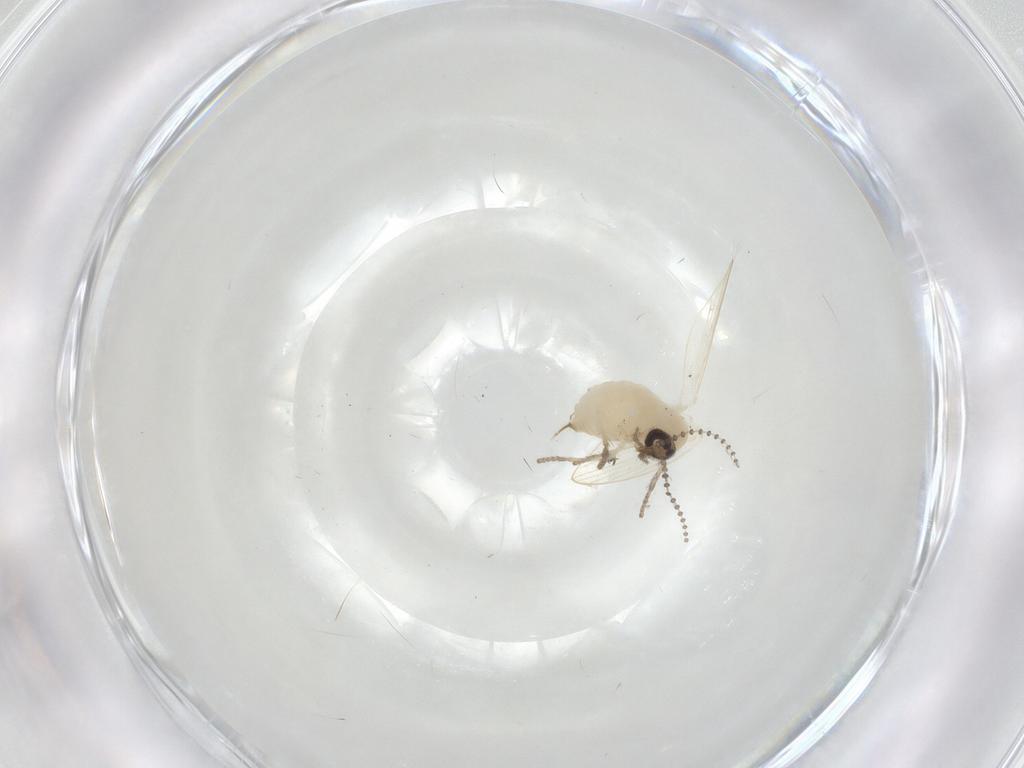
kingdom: Animalia
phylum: Arthropoda
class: Insecta
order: Diptera
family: Psychodidae
